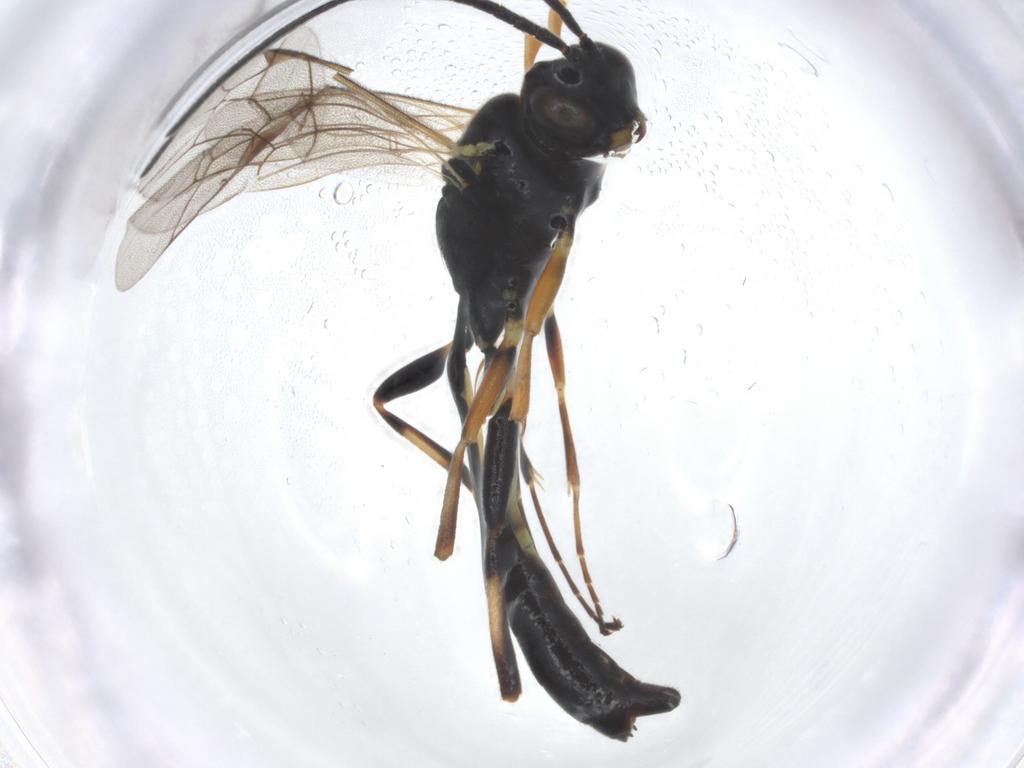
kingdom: Animalia
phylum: Arthropoda
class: Insecta
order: Hymenoptera
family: Ichneumonidae
